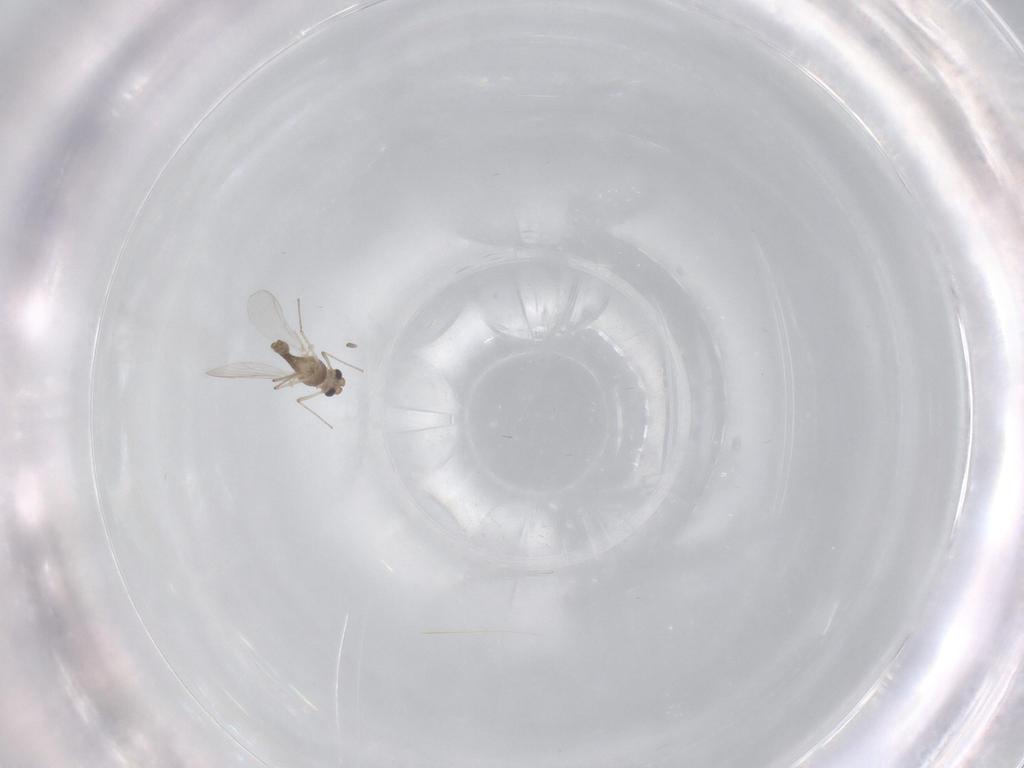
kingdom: Animalia
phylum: Arthropoda
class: Insecta
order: Diptera
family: Chironomidae
